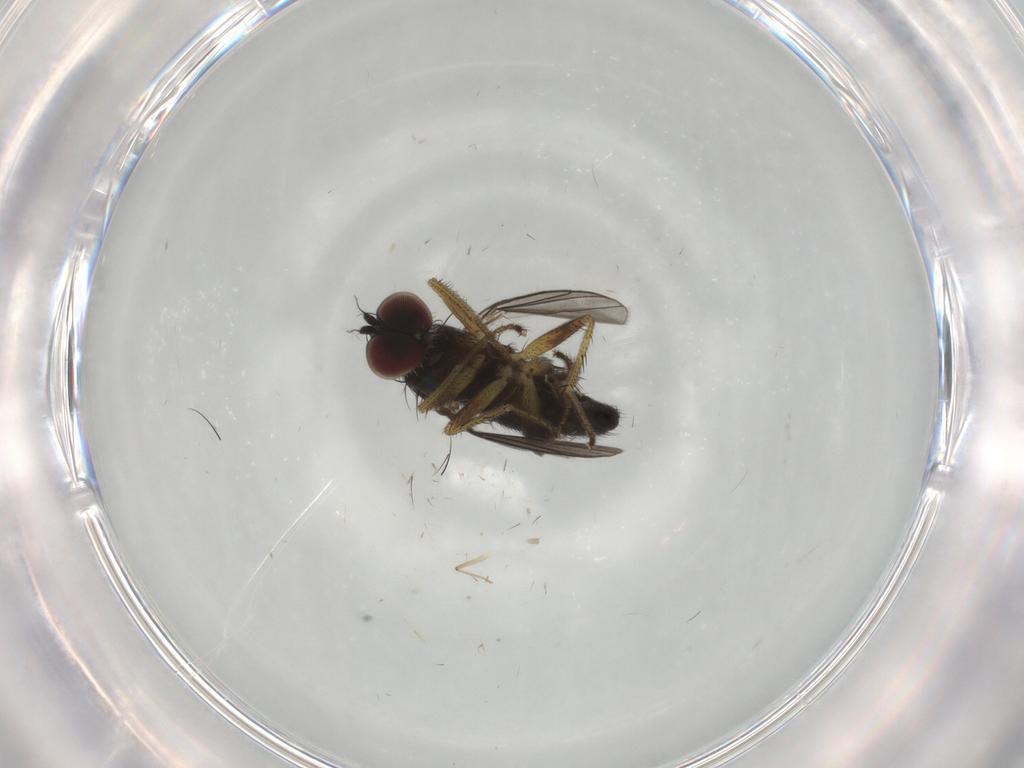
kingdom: Animalia
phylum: Arthropoda
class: Insecta
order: Diptera
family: Dolichopodidae
